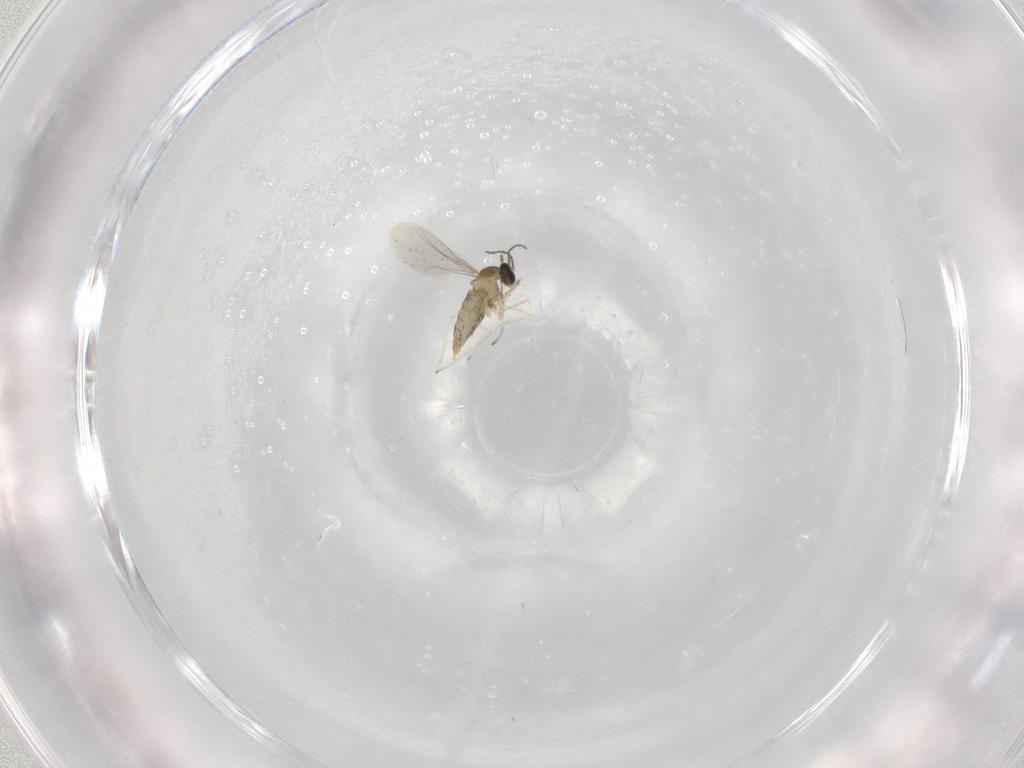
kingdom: Animalia
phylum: Arthropoda
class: Insecta
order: Diptera
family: Cecidomyiidae
